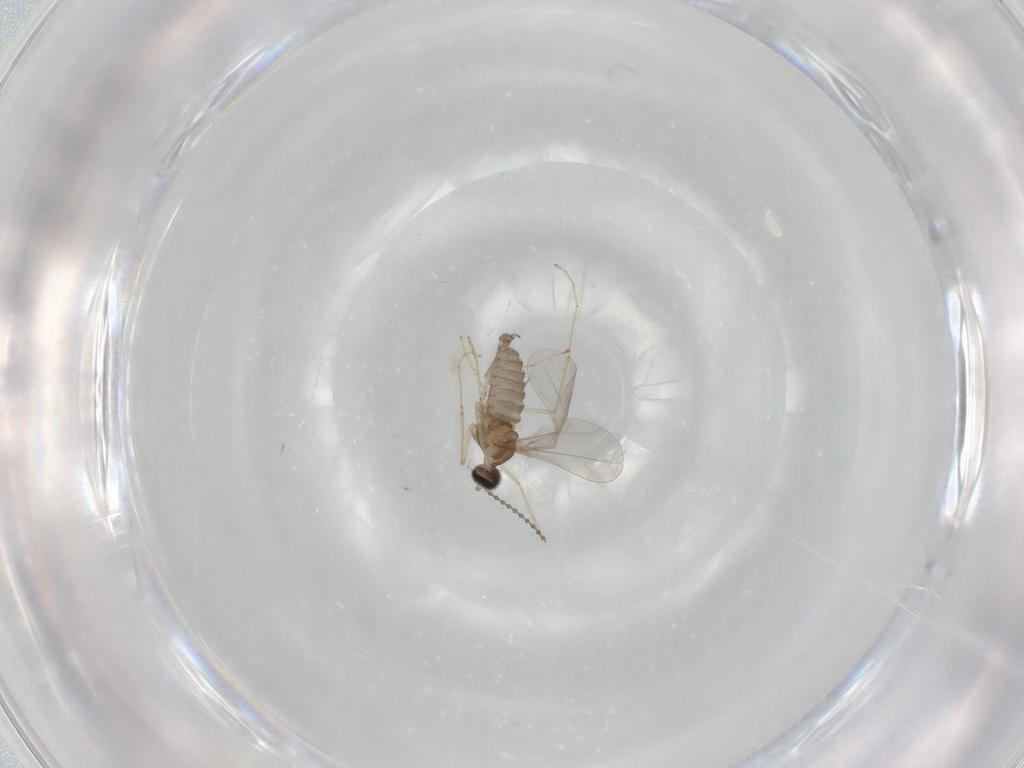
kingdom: Animalia
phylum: Arthropoda
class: Insecta
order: Diptera
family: Cecidomyiidae
